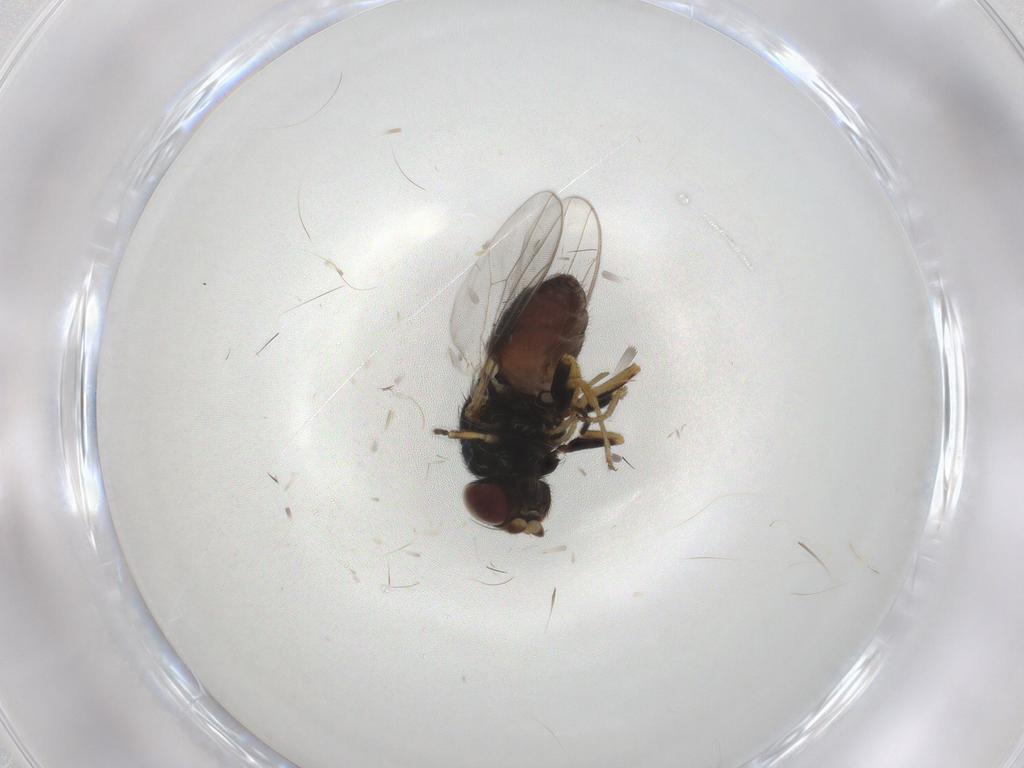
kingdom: Animalia
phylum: Arthropoda
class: Insecta
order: Diptera
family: Chloropidae
